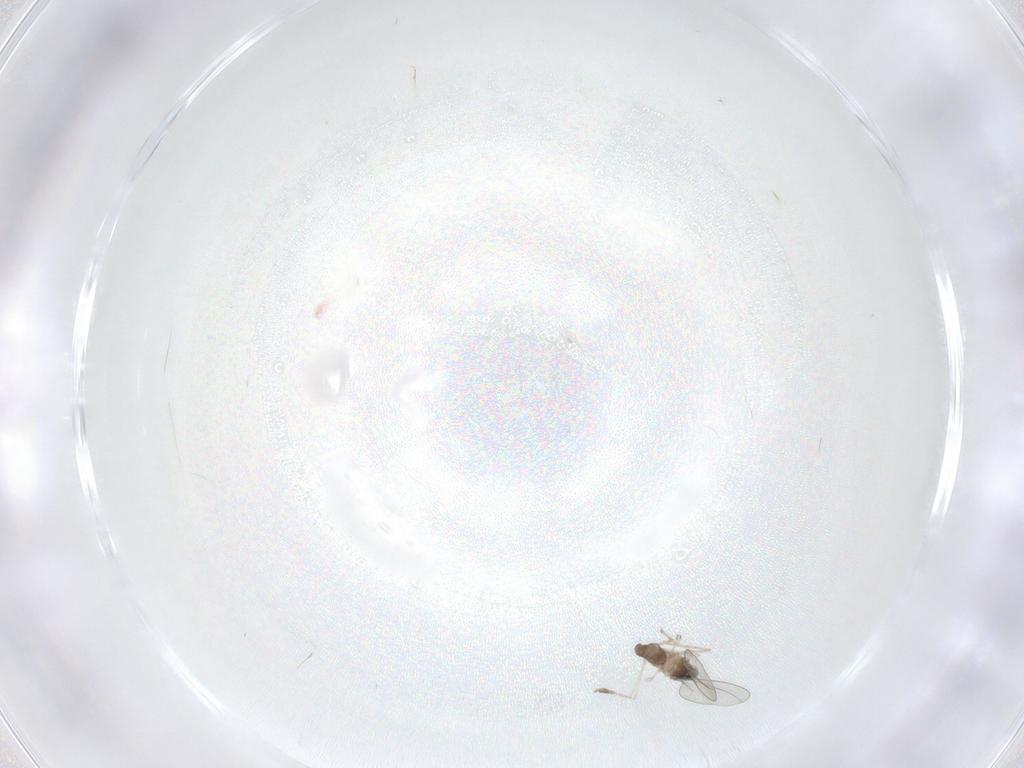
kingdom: Animalia
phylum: Arthropoda
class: Insecta
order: Diptera
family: Cecidomyiidae
